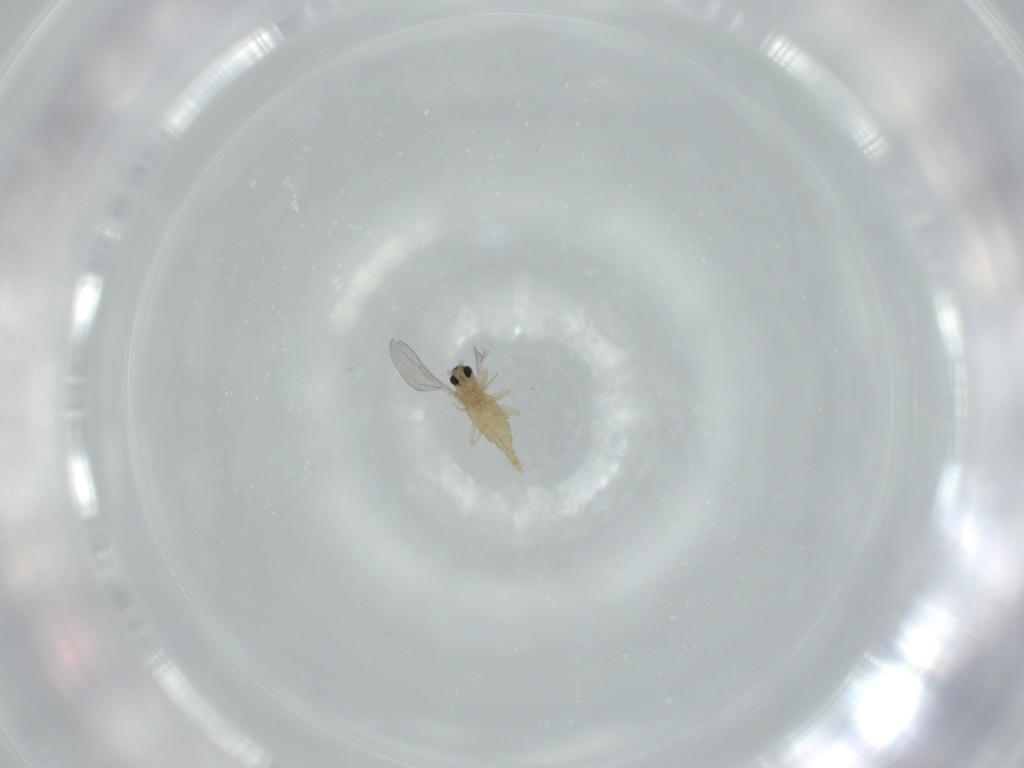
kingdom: Animalia
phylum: Arthropoda
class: Insecta
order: Diptera
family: Cecidomyiidae
